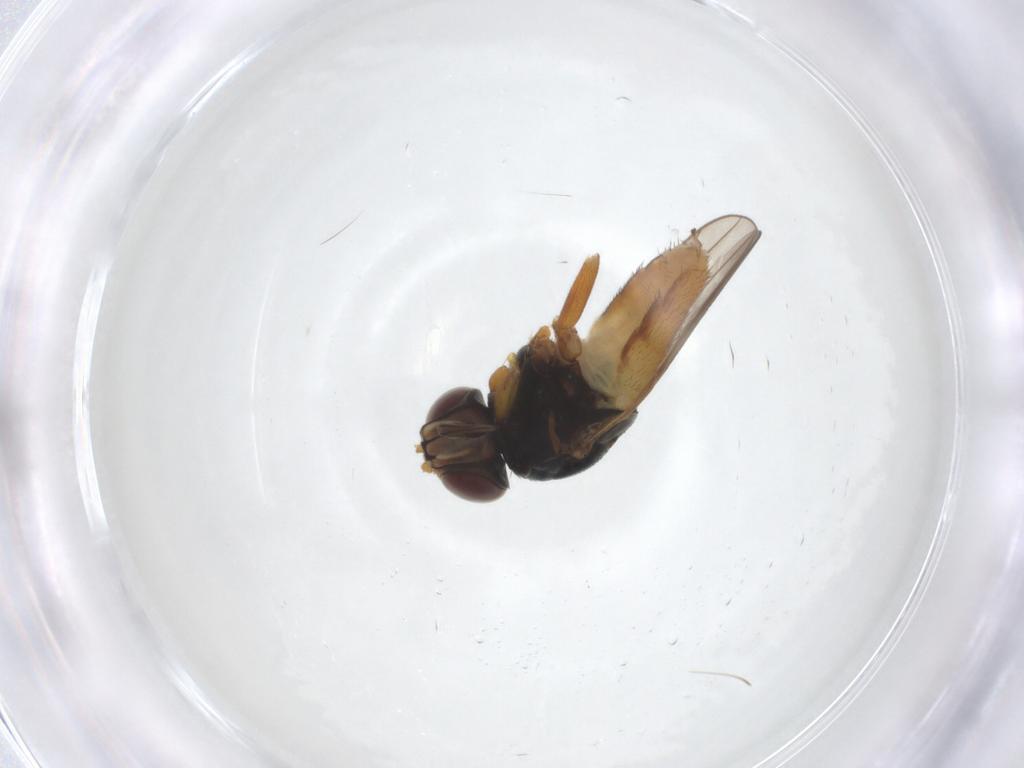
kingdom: Animalia
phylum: Arthropoda
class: Insecta
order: Diptera
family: Chloropidae
